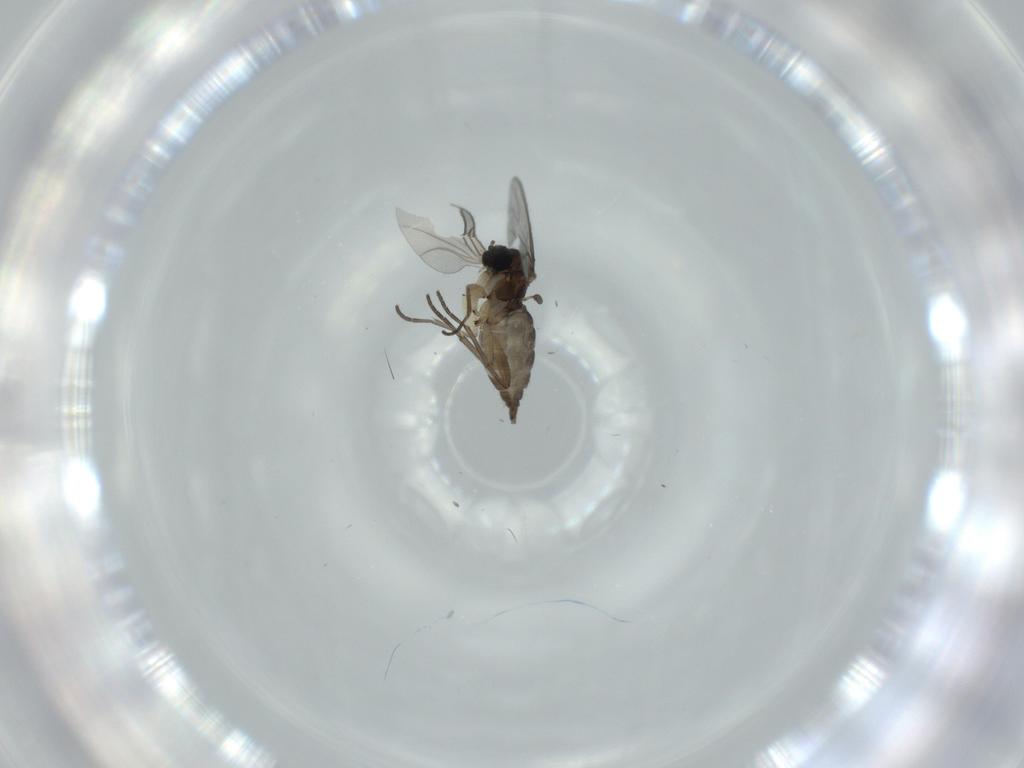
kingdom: Animalia
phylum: Arthropoda
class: Insecta
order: Diptera
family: Sciaridae
